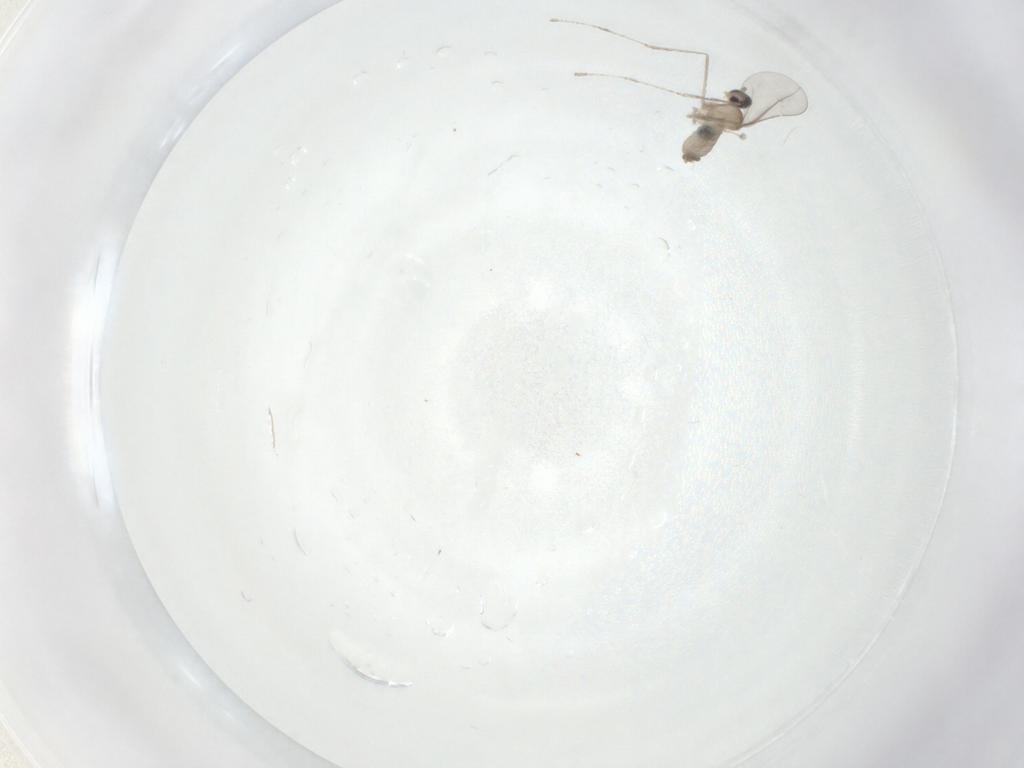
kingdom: Animalia
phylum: Arthropoda
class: Insecta
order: Diptera
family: Cecidomyiidae
